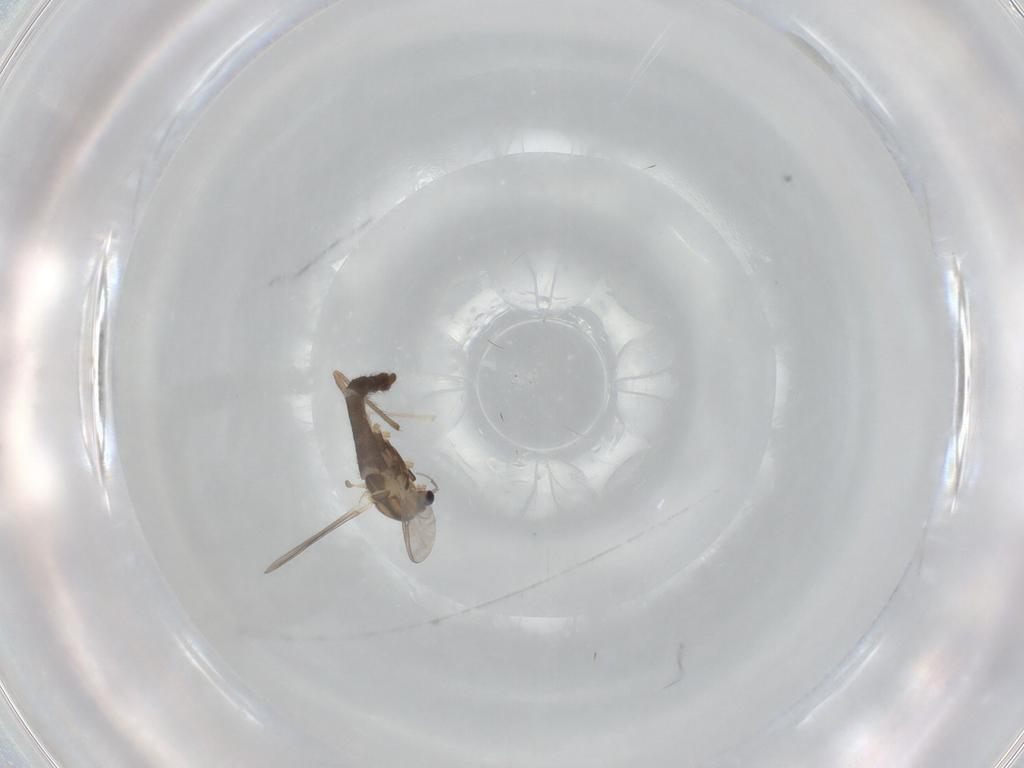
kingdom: Animalia
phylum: Arthropoda
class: Insecta
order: Diptera
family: Chironomidae
